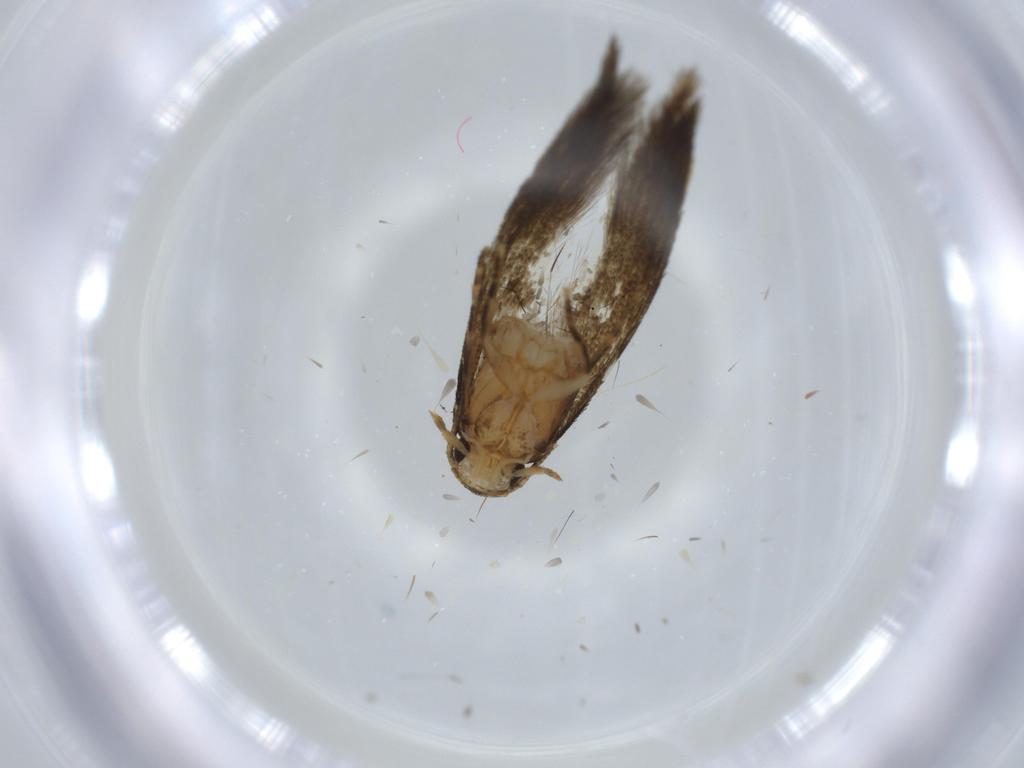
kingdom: Animalia
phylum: Arthropoda
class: Insecta
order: Lepidoptera
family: Tineidae
